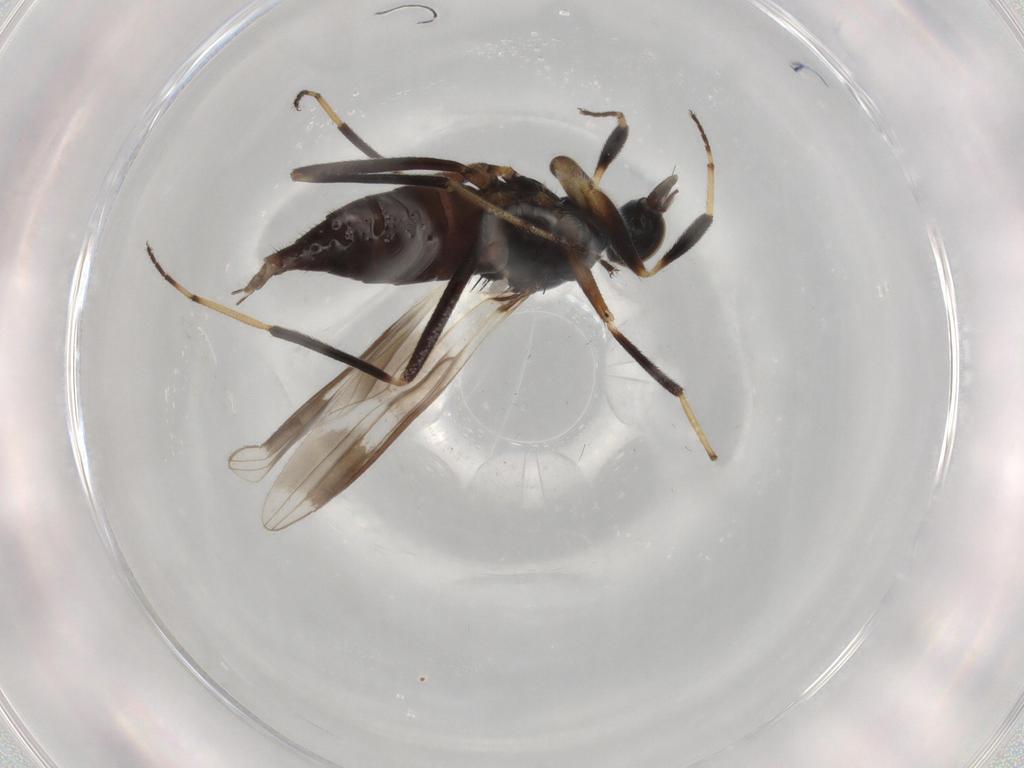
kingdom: Animalia
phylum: Arthropoda
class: Insecta
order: Diptera
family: Hybotidae
